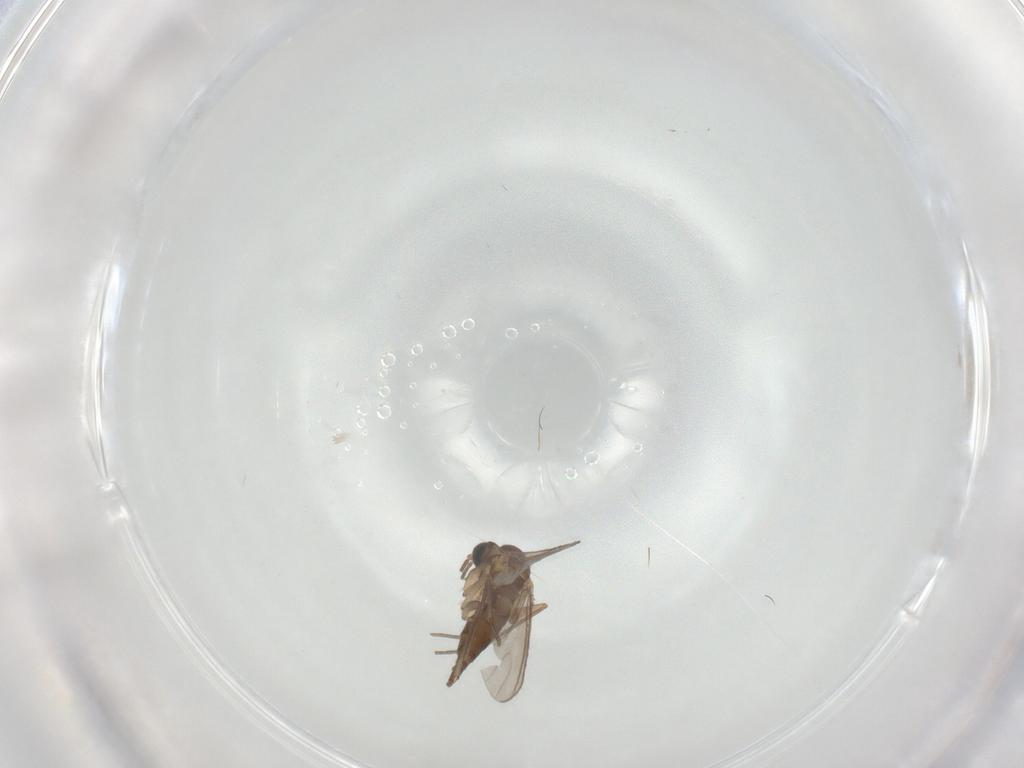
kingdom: Animalia
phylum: Arthropoda
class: Insecta
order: Diptera
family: Sciaridae
